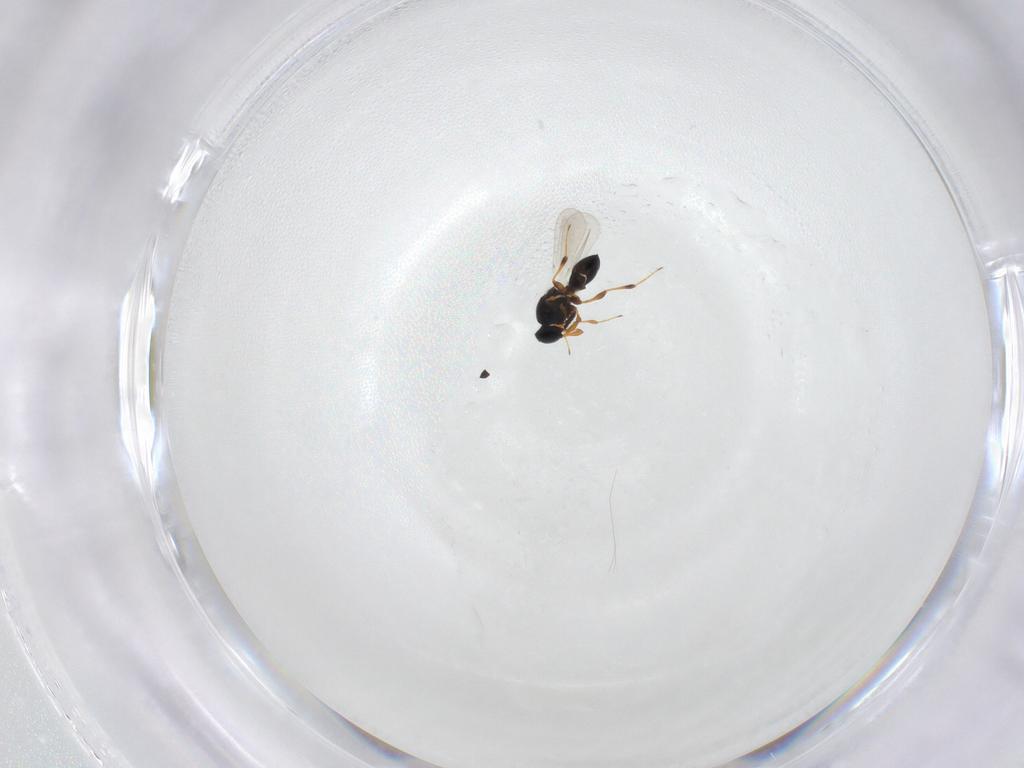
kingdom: Animalia
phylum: Arthropoda
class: Insecta
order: Hymenoptera
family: Platygastridae
